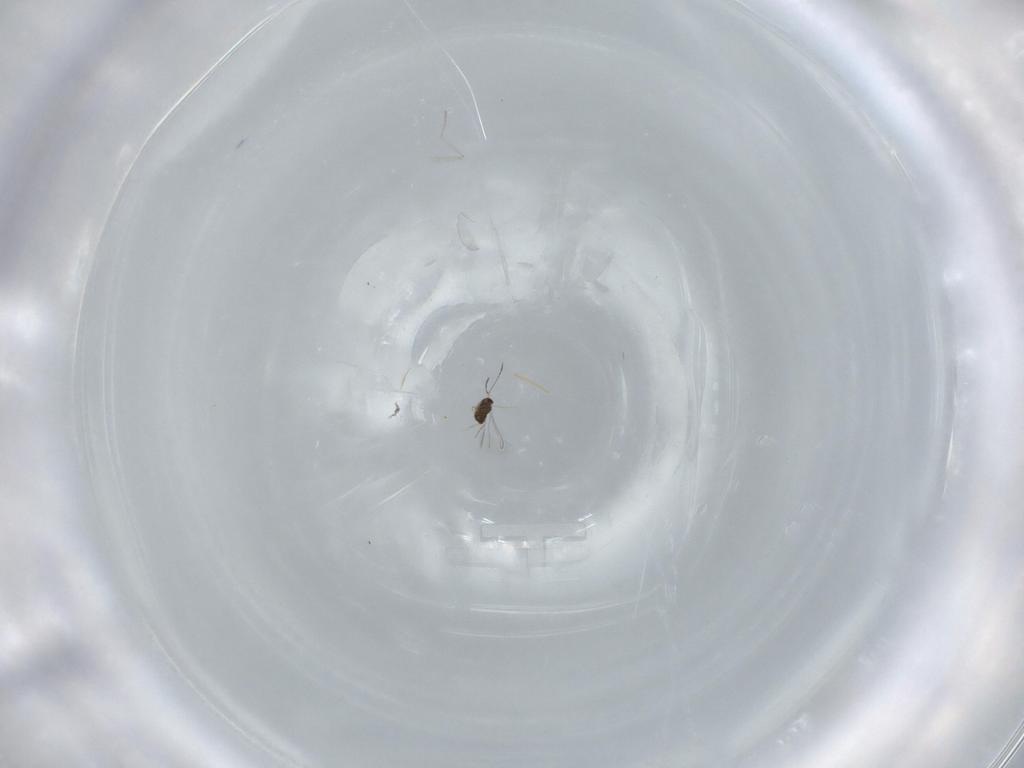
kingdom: Animalia
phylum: Arthropoda
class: Insecta
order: Diptera
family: Cecidomyiidae
